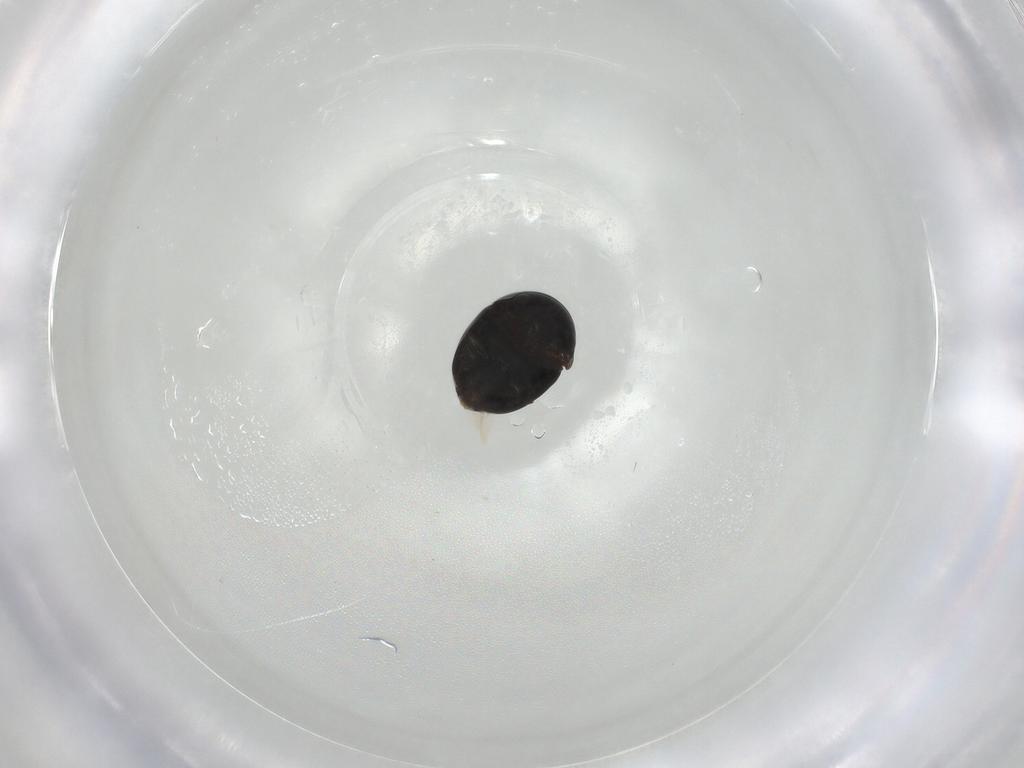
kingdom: Animalia
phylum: Arthropoda
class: Insecta
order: Coleoptera
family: Cybocephalidae
